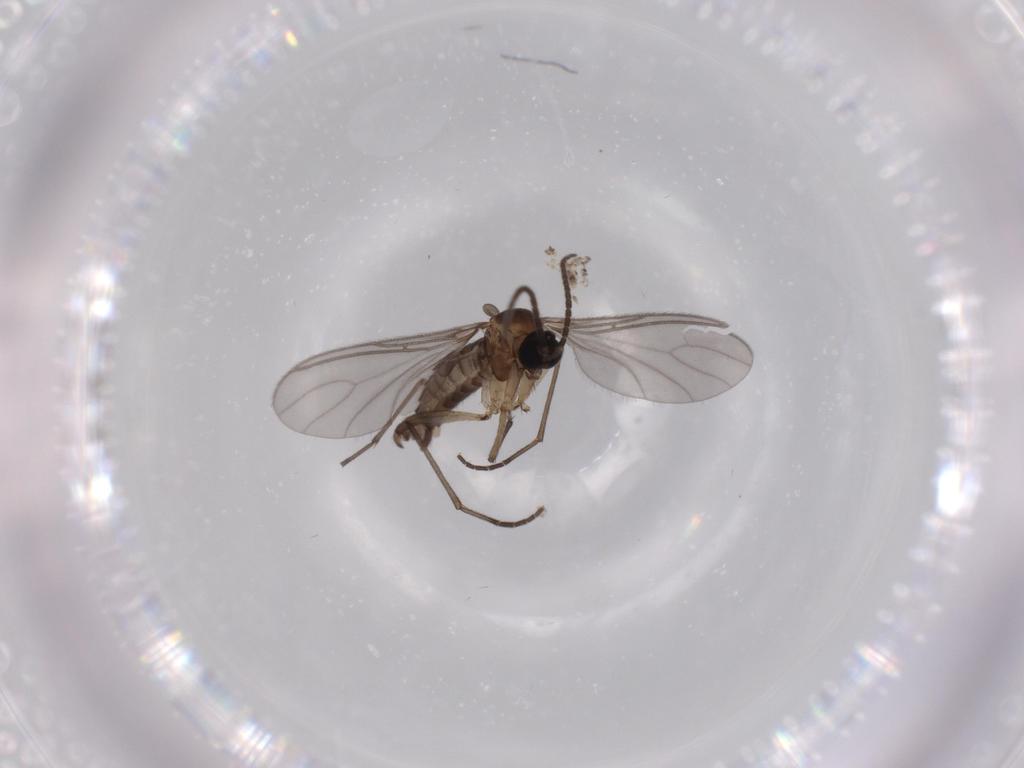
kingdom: Animalia
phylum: Arthropoda
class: Insecta
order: Diptera
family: Sciaridae
